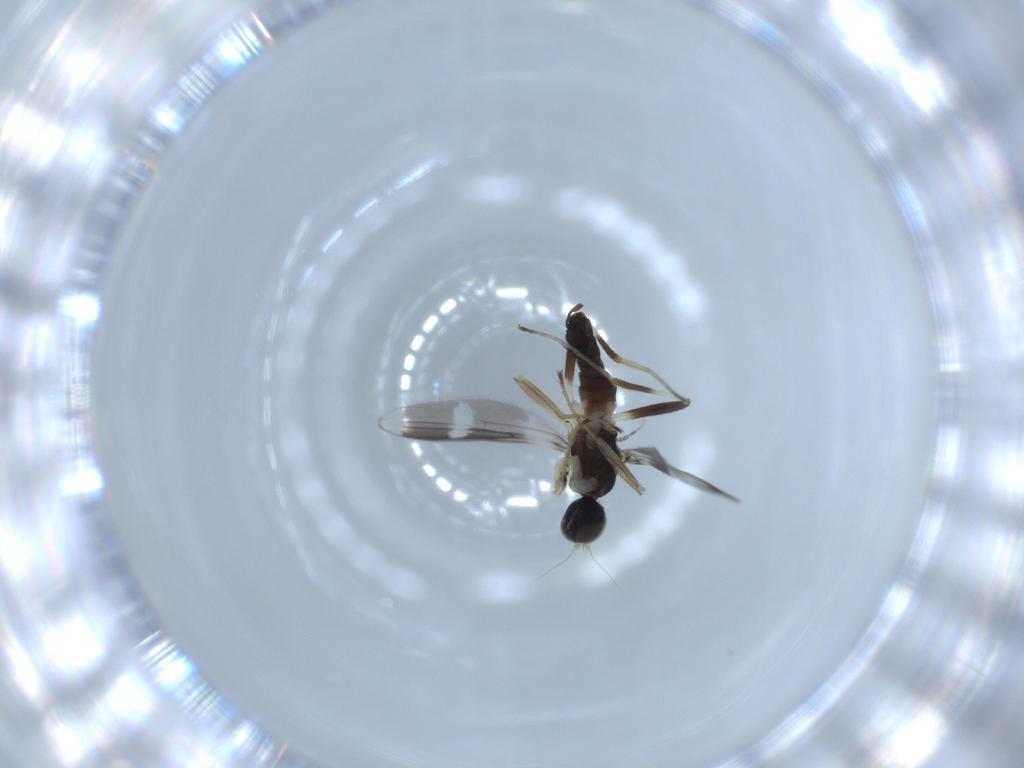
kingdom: Animalia
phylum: Arthropoda
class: Insecta
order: Diptera
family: Hybotidae
